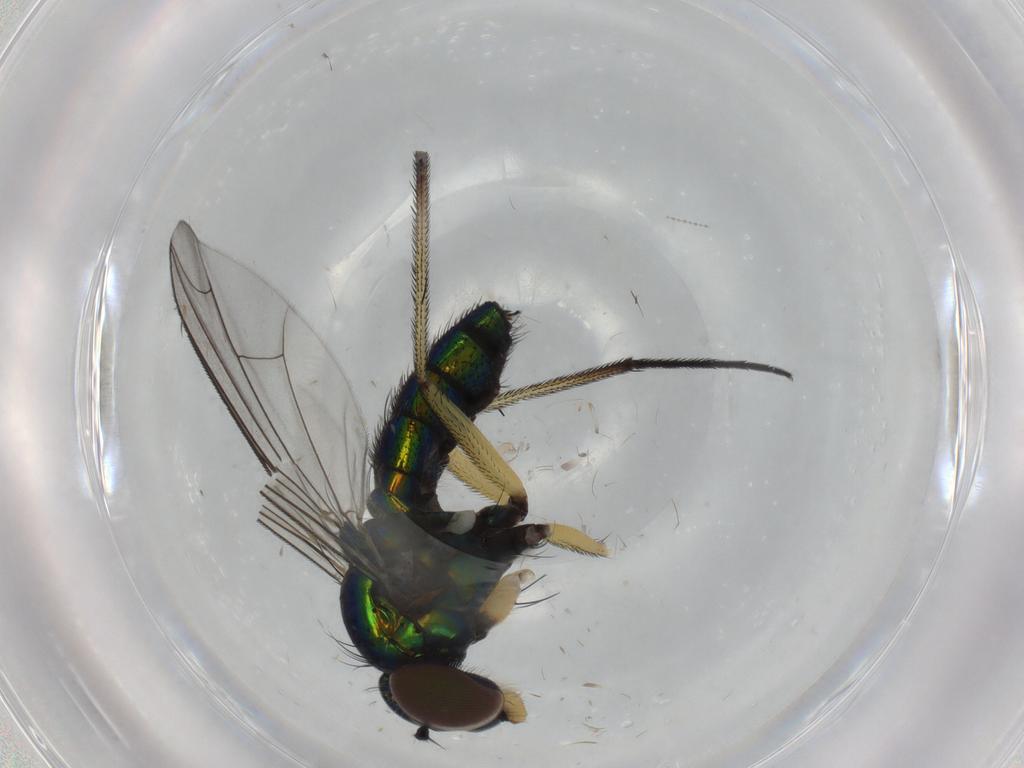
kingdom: Animalia
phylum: Arthropoda
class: Insecta
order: Diptera
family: Dolichopodidae
